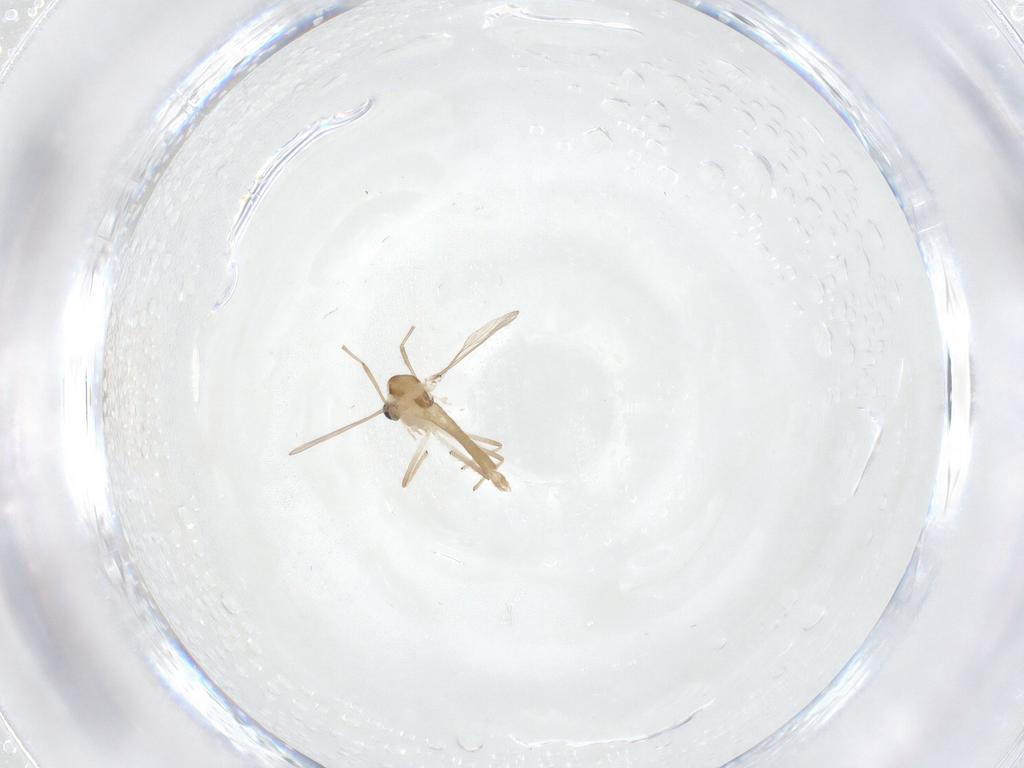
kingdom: Animalia
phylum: Arthropoda
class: Insecta
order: Diptera
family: Chironomidae
